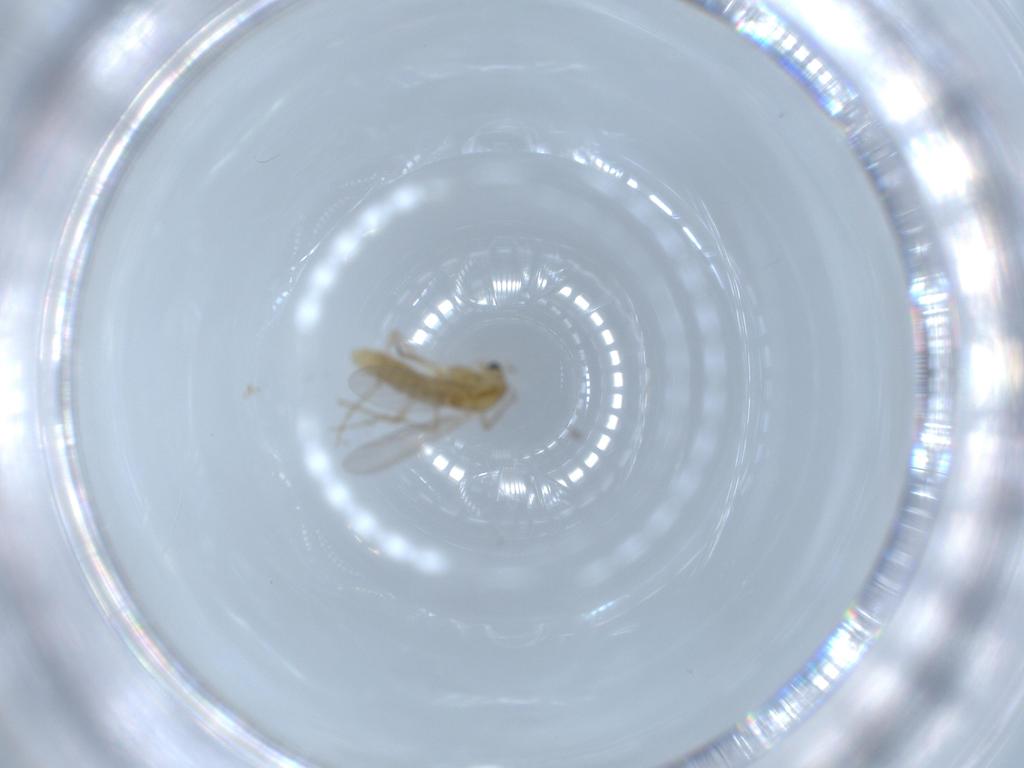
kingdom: Animalia
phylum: Arthropoda
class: Insecta
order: Diptera
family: Chironomidae
